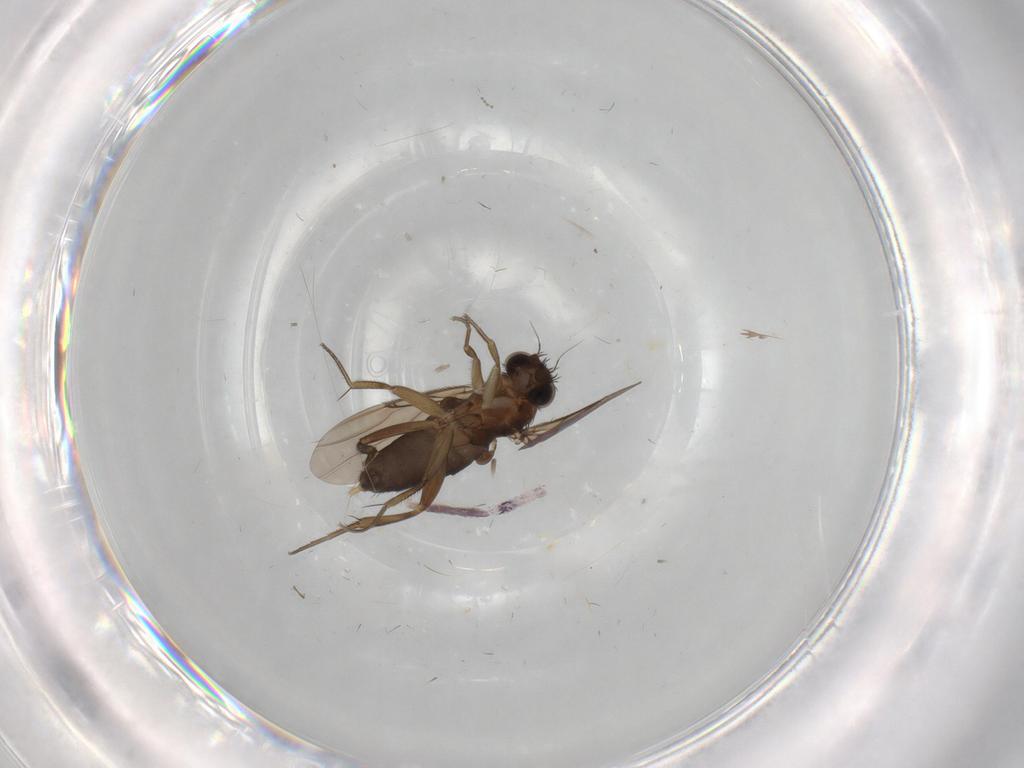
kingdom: Animalia
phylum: Arthropoda
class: Insecta
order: Diptera
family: Phoridae
